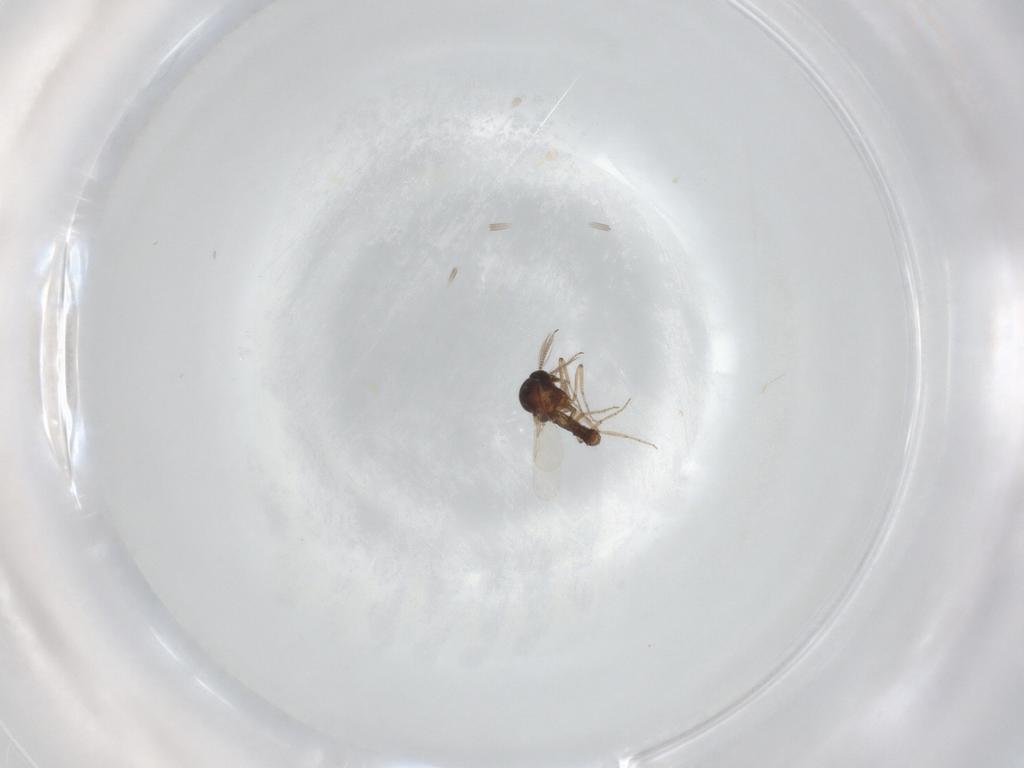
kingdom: Animalia
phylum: Arthropoda
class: Insecta
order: Diptera
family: Ceratopogonidae
